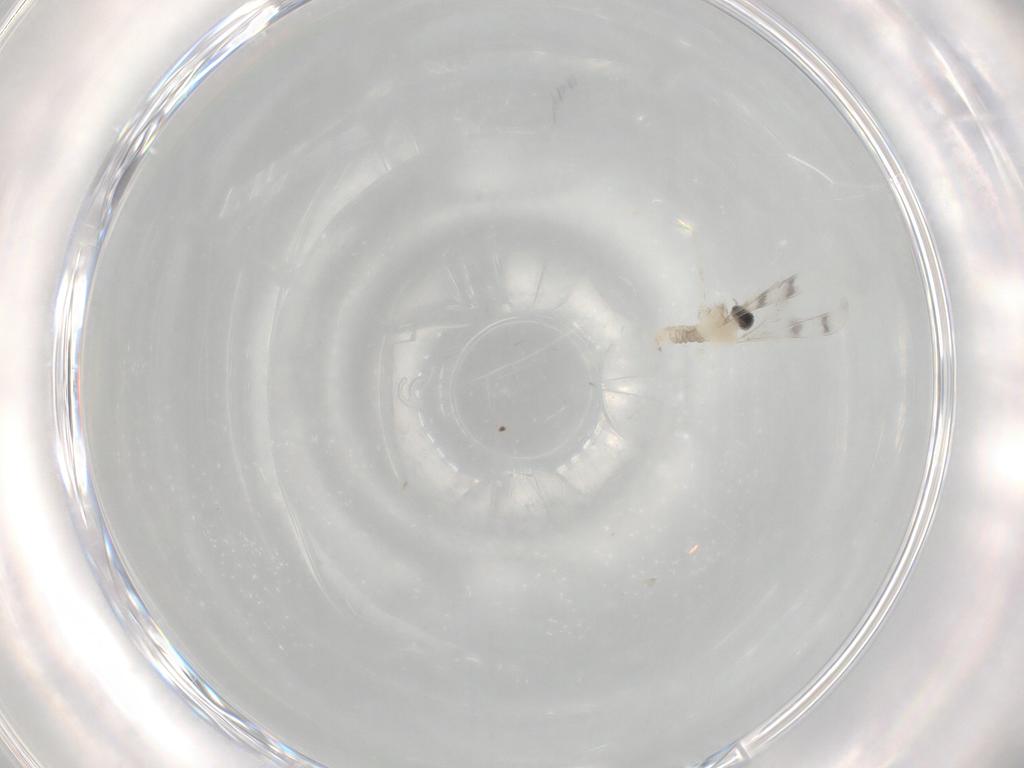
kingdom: Animalia
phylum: Arthropoda
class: Insecta
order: Diptera
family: Cecidomyiidae
